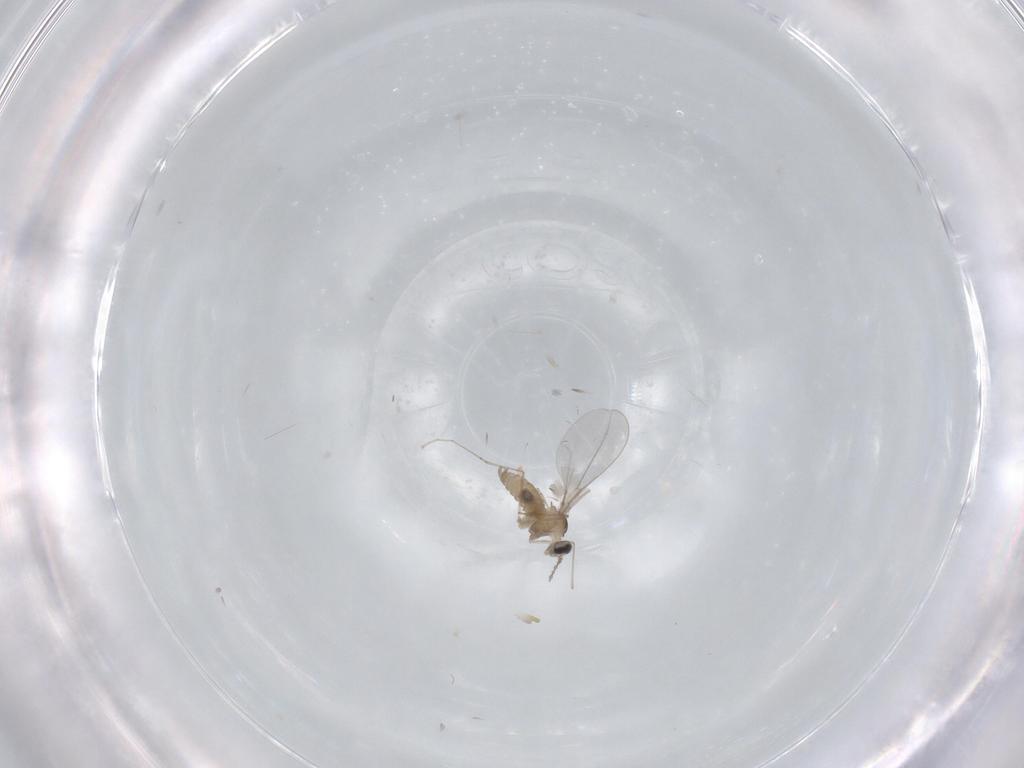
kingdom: Animalia
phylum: Arthropoda
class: Insecta
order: Diptera
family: Cecidomyiidae
